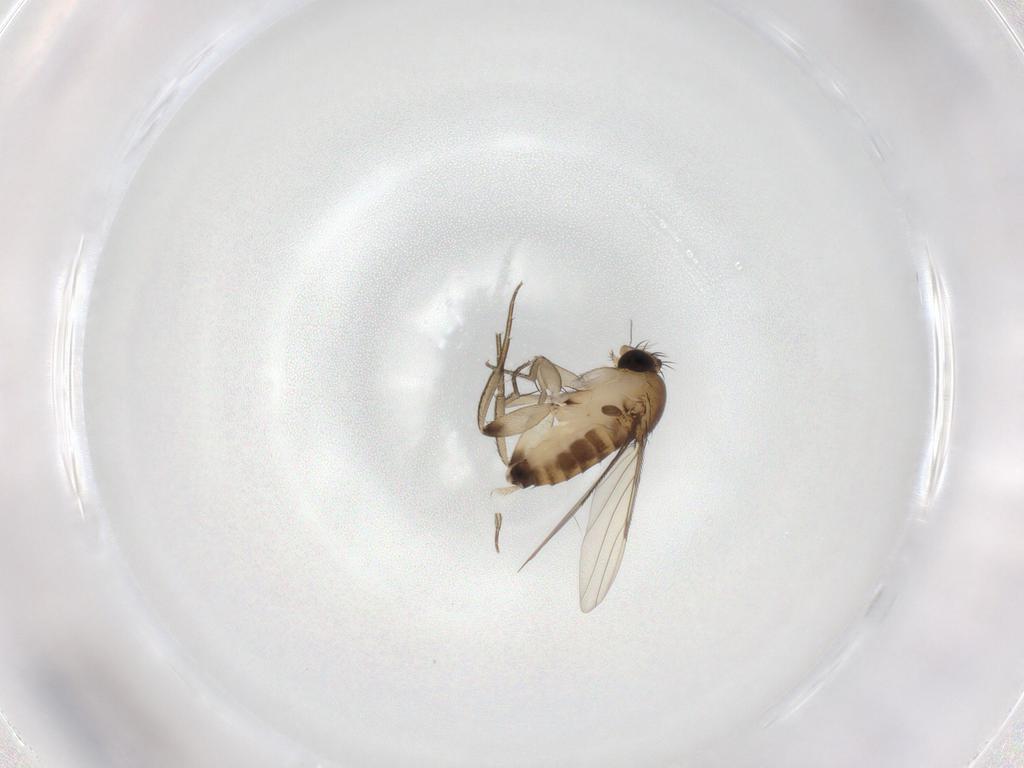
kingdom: Animalia
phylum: Arthropoda
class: Insecta
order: Diptera
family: Phoridae
